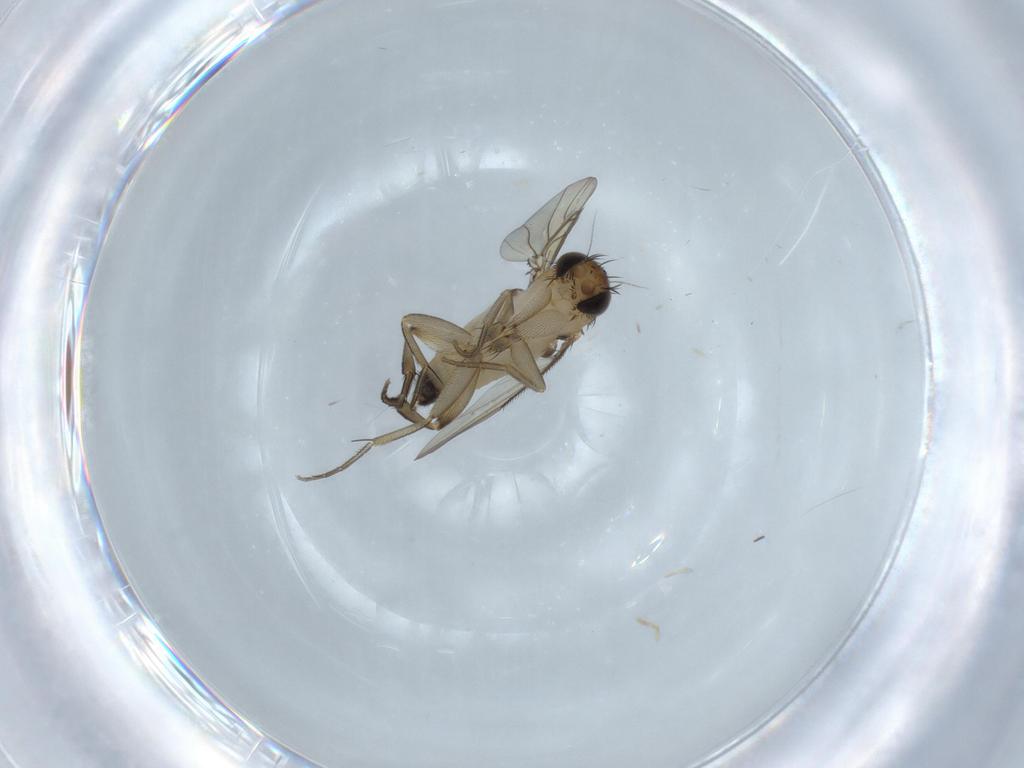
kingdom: Animalia
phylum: Arthropoda
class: Insecta
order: Diptera
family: Phoridae
